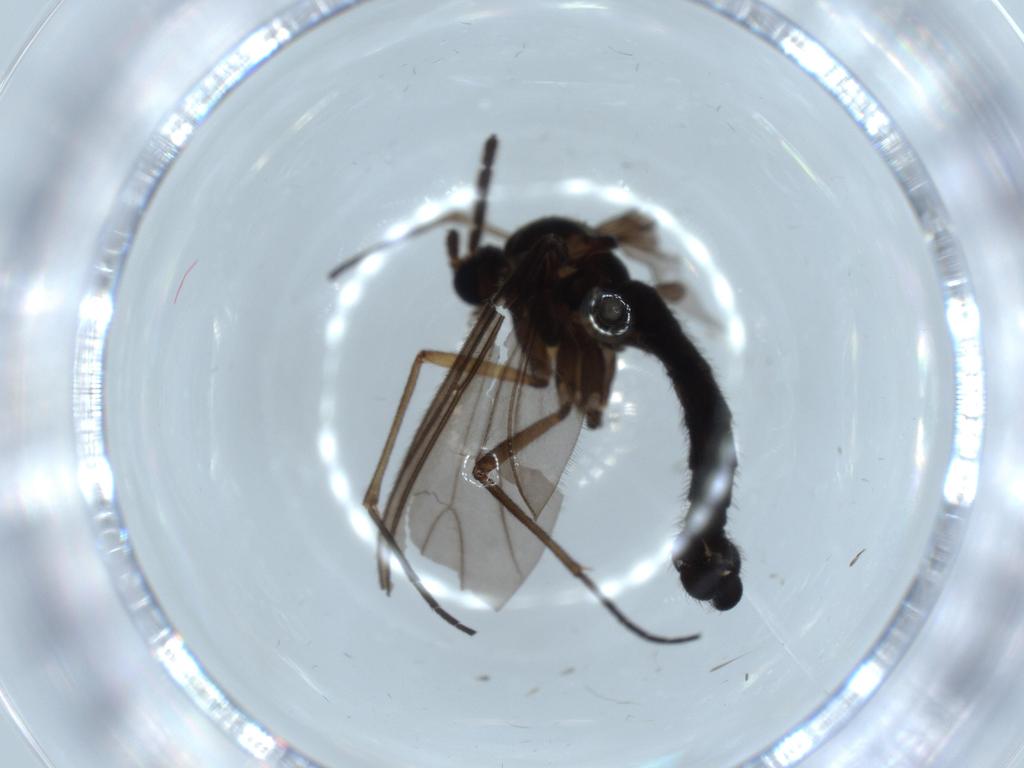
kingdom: Animalia
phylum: Arthropoda
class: Insecta
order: Diptera
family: Sciaridae
